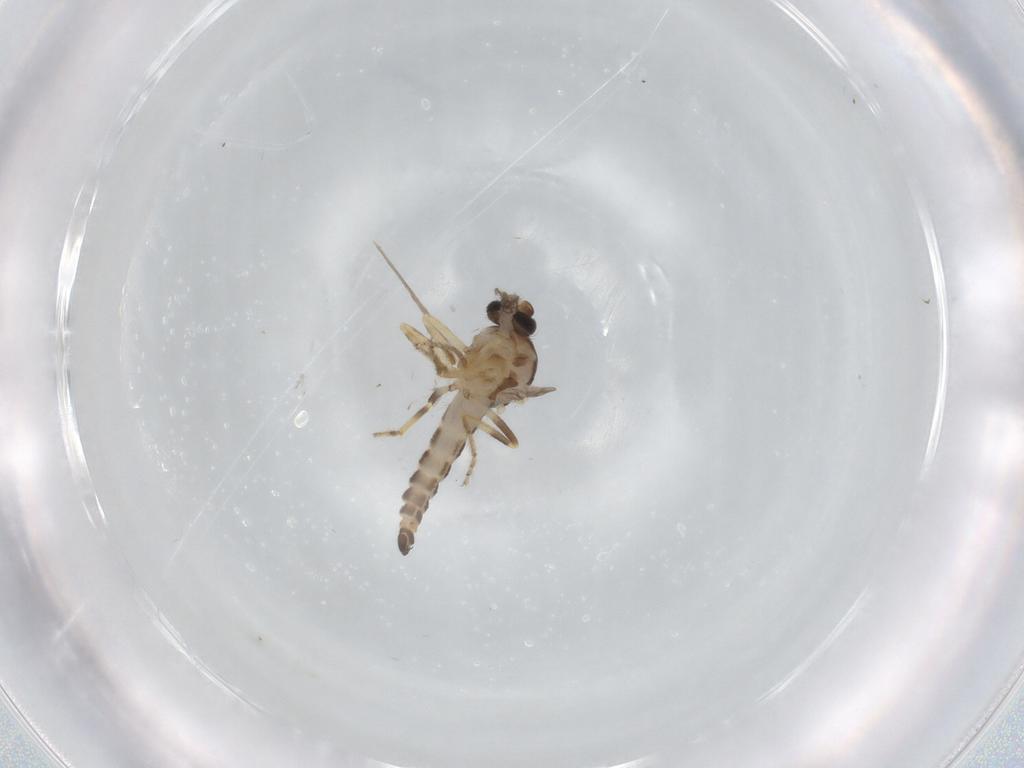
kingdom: Animalia
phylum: Arthropoda
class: Insecta
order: Diptera
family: Ceratopogonidae
